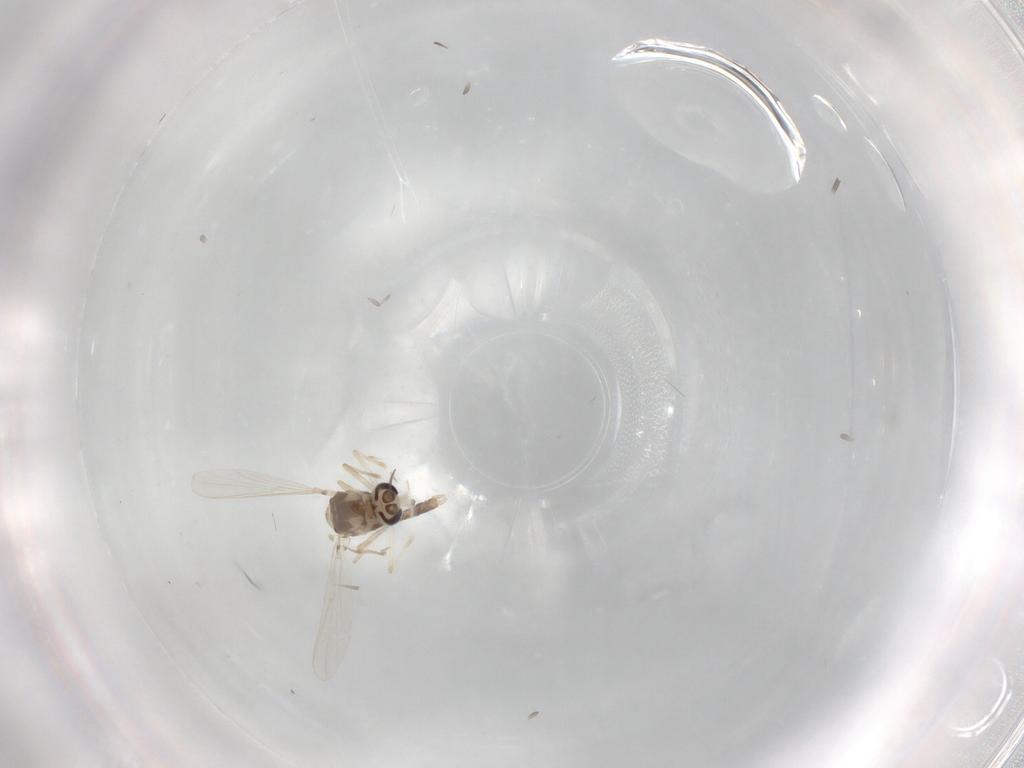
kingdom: Animalia
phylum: Arthropoda
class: Insecta
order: Diptera
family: Chironomidae
